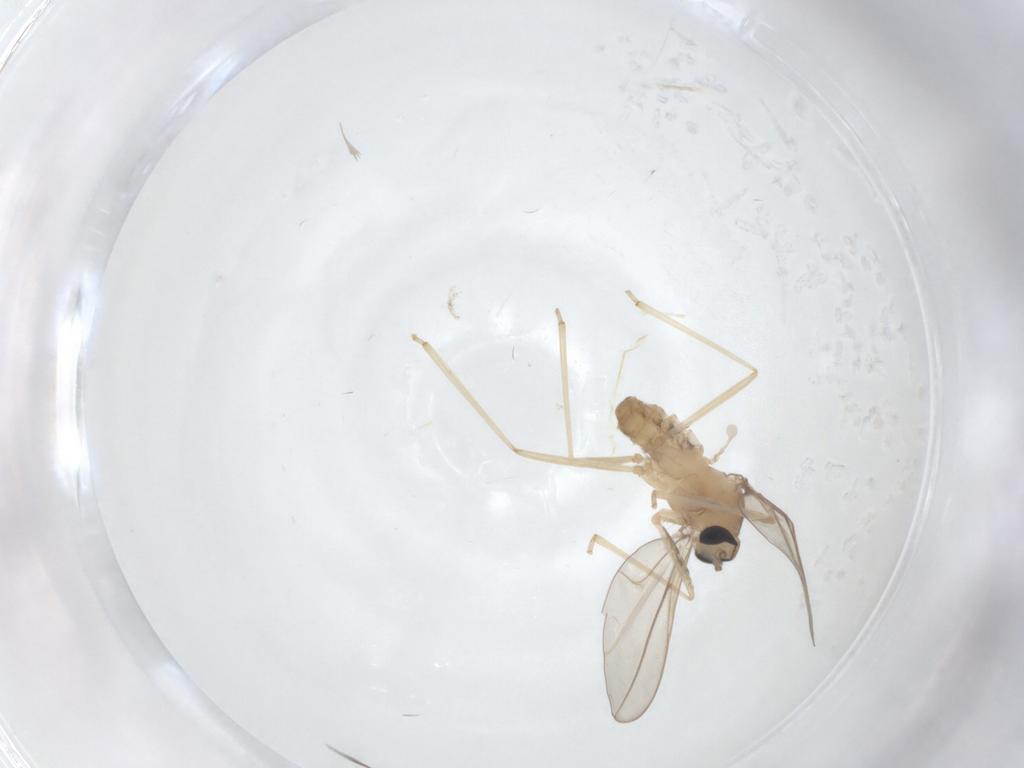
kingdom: Animalia
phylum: Arthropoda
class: Insecta
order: Diptera
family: Cecidomyiidae
